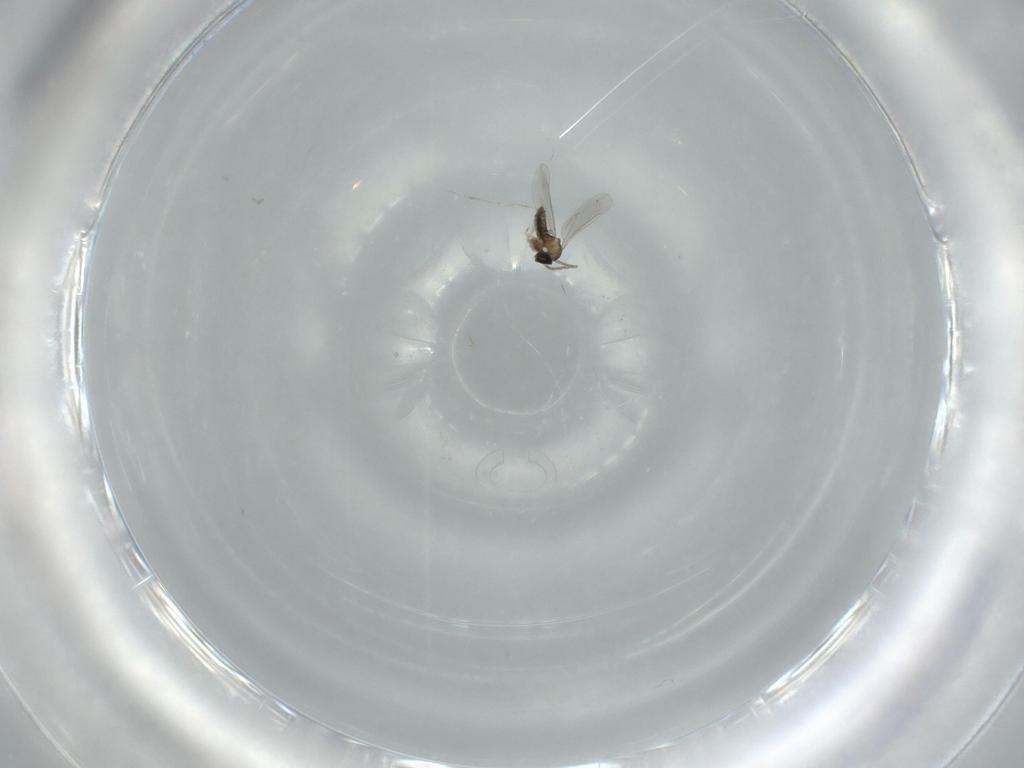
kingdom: Animalia
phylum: Arthropoda
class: Insecta
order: Diptera
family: Cecidomyiidae
